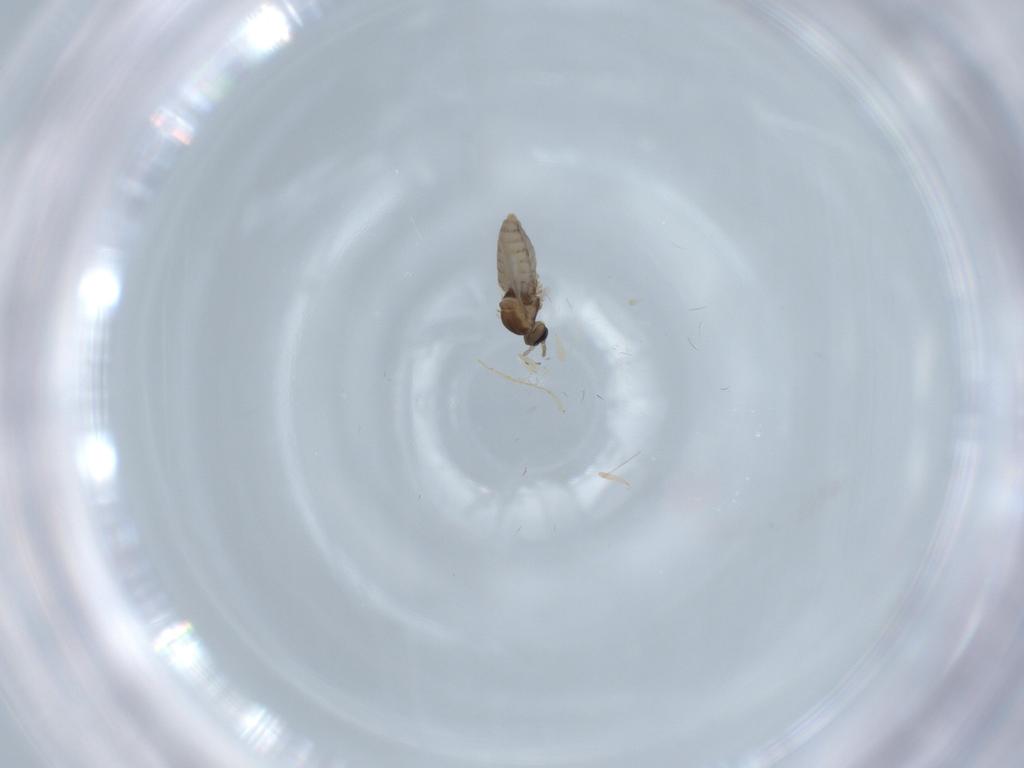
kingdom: Animalia
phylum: Arthropoda
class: Insecta
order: Diptera
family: Cecidomyiidae
